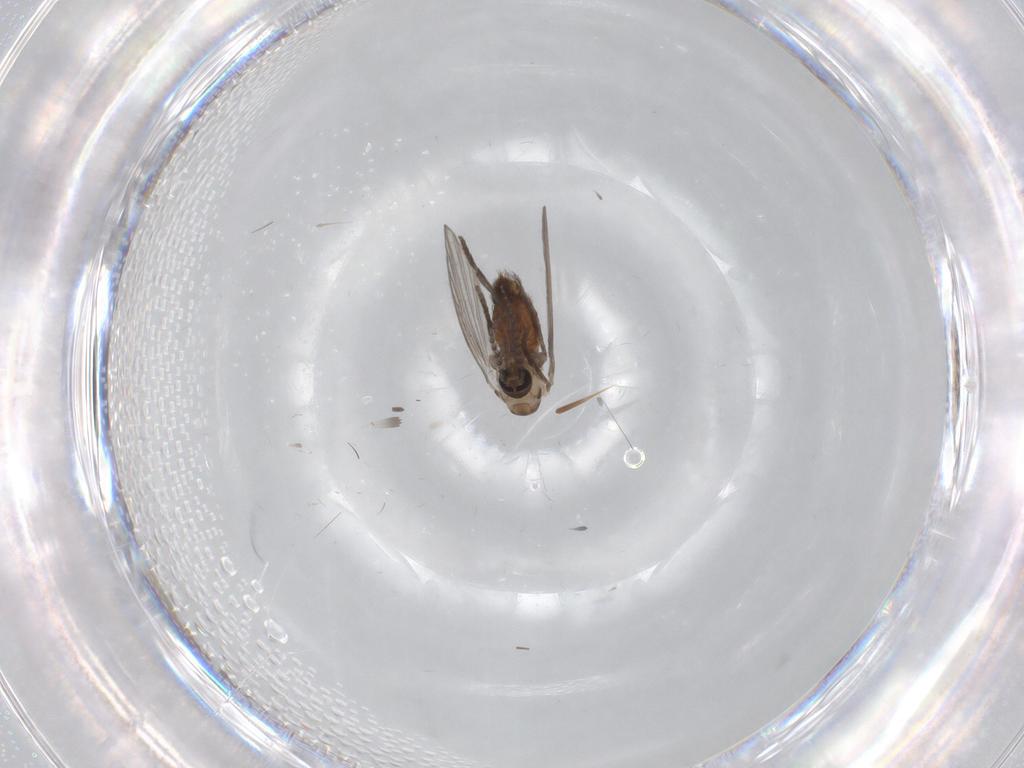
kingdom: Animalia
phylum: Arthropoda
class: Insecta
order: Diptera
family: Psychodidae
